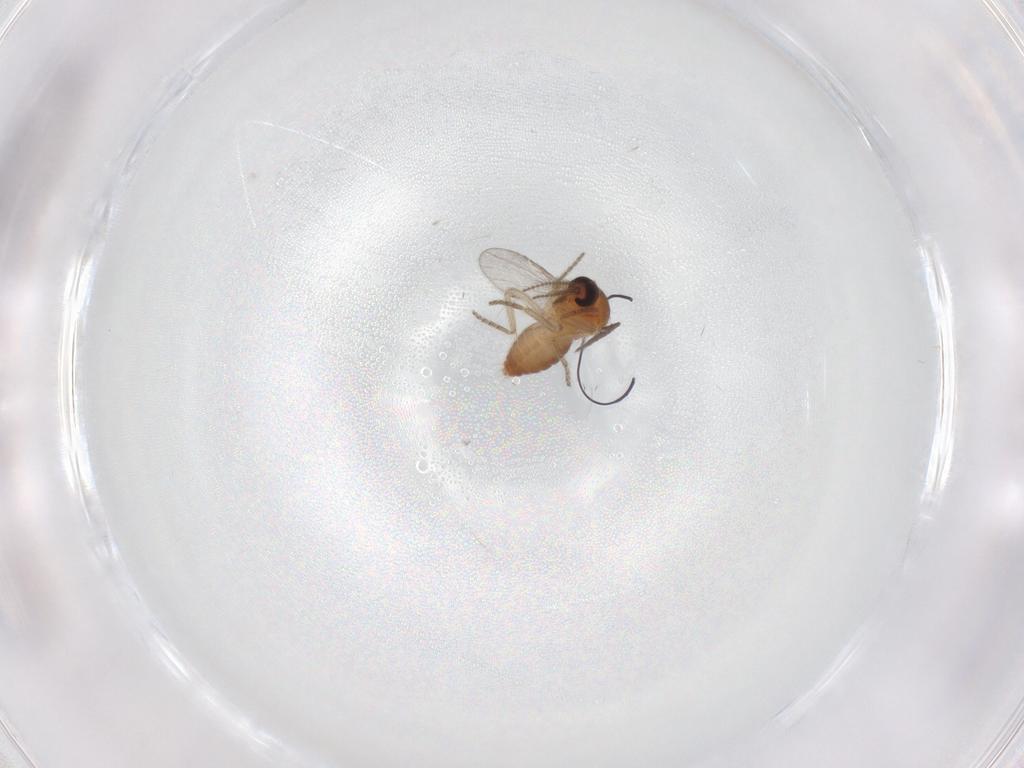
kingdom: Animalia
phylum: Arthropoda
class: Insecta
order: Diptera
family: Ceratopogonidae
